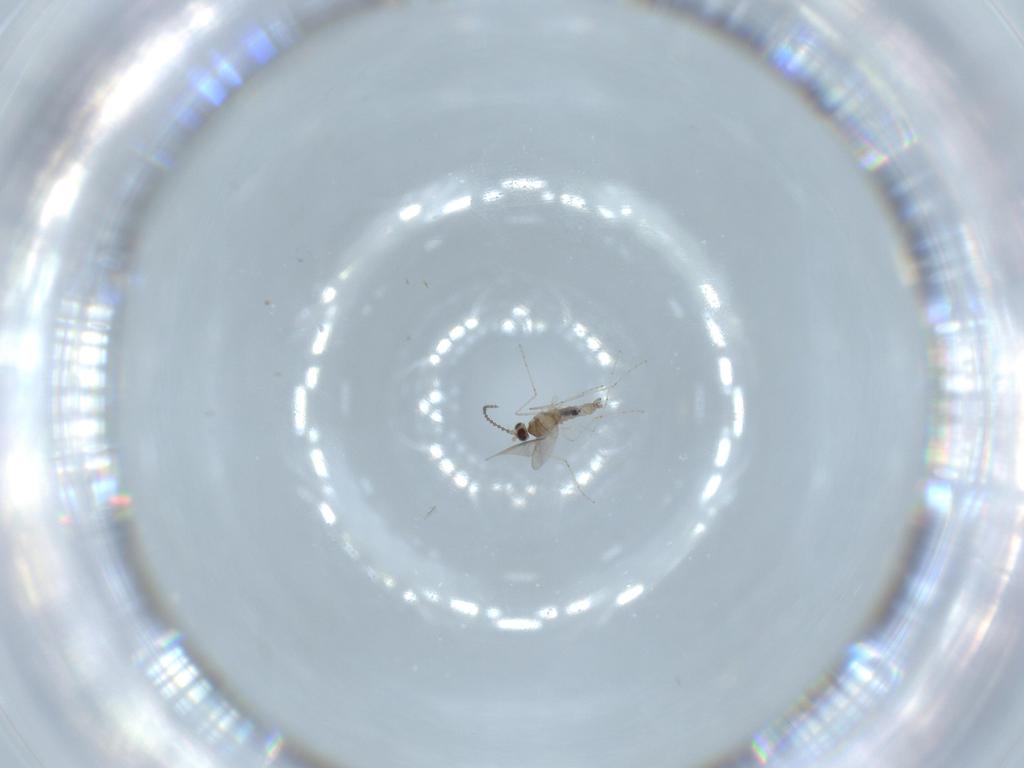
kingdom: Animalia
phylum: Arthropoda
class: Insecta
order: Diptera
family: Cecidomyiidae
